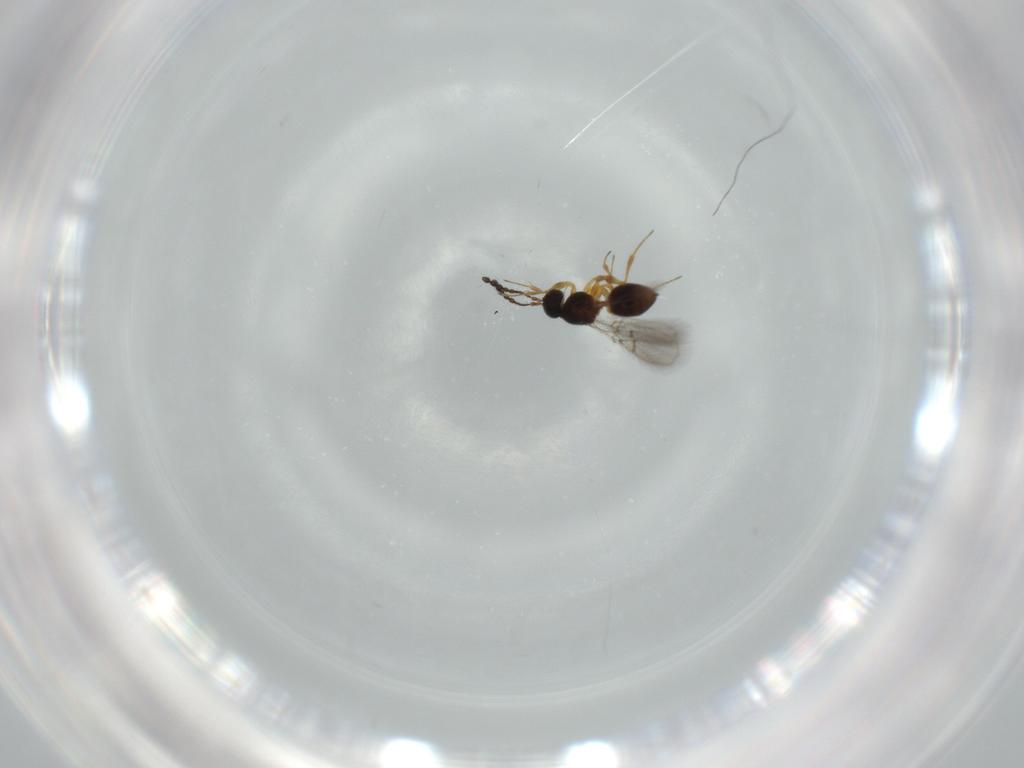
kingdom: Animalia
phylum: Arthropoda
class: Insecta
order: Hymenoptera
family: Figitidae
